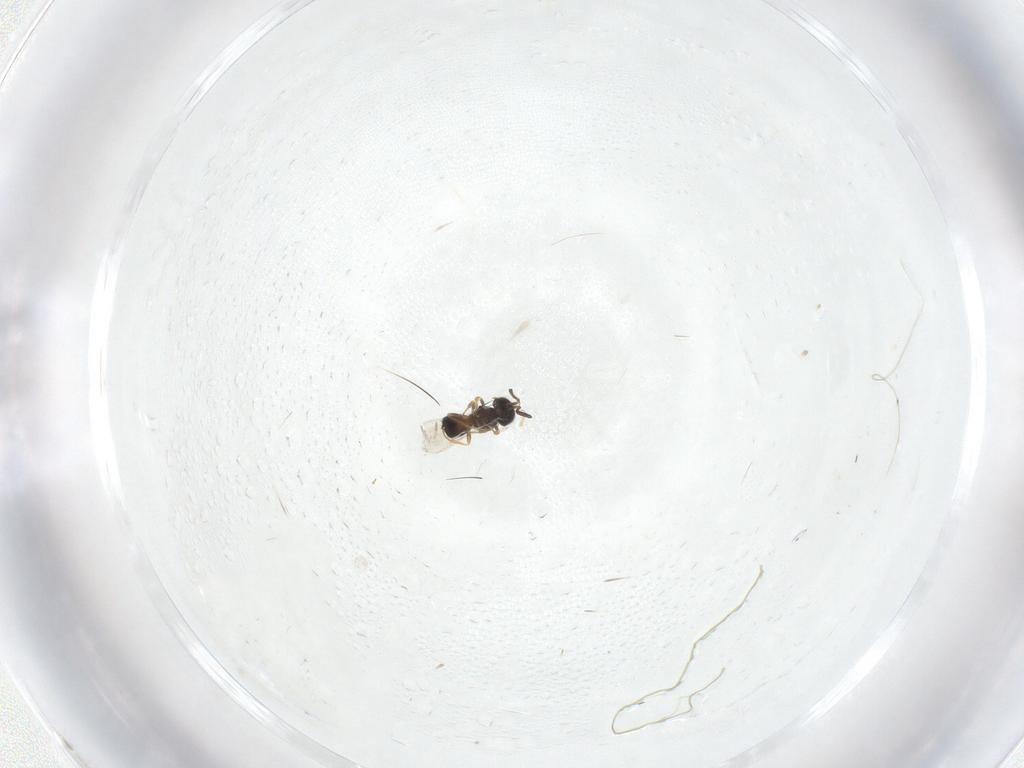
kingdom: Animalia
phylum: Arthropoda
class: Insecta
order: Hymenoptera
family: Scelionidae
